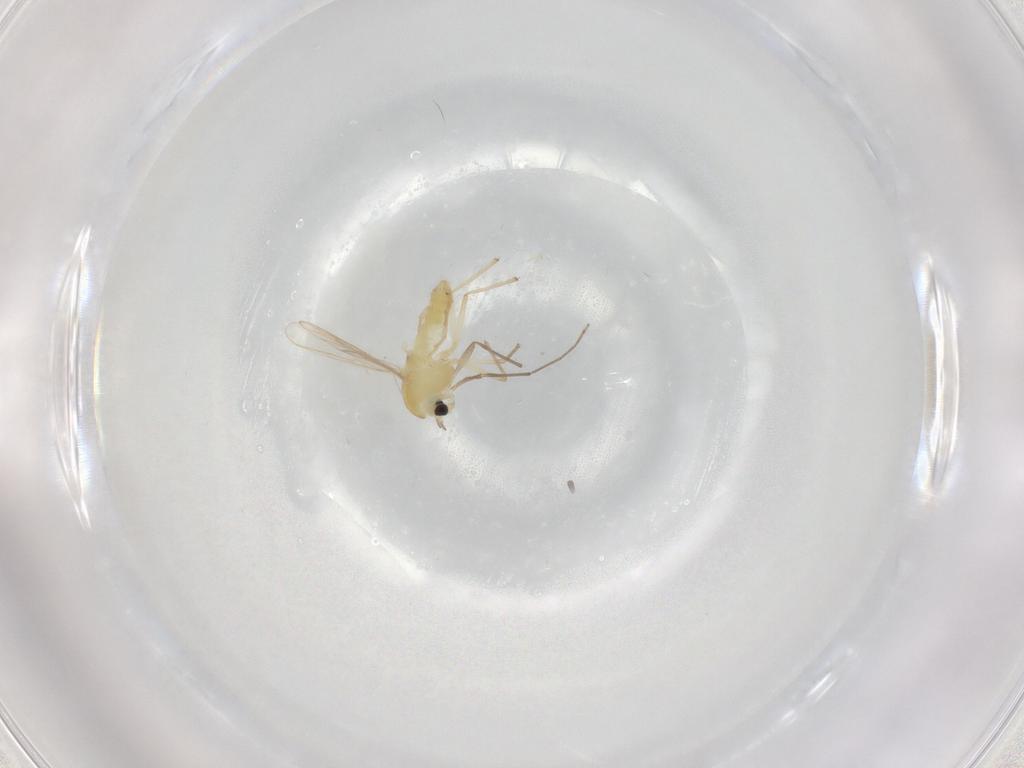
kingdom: Animalia
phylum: Arthropoda
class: Insecta
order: Diptera
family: Chironomidae
